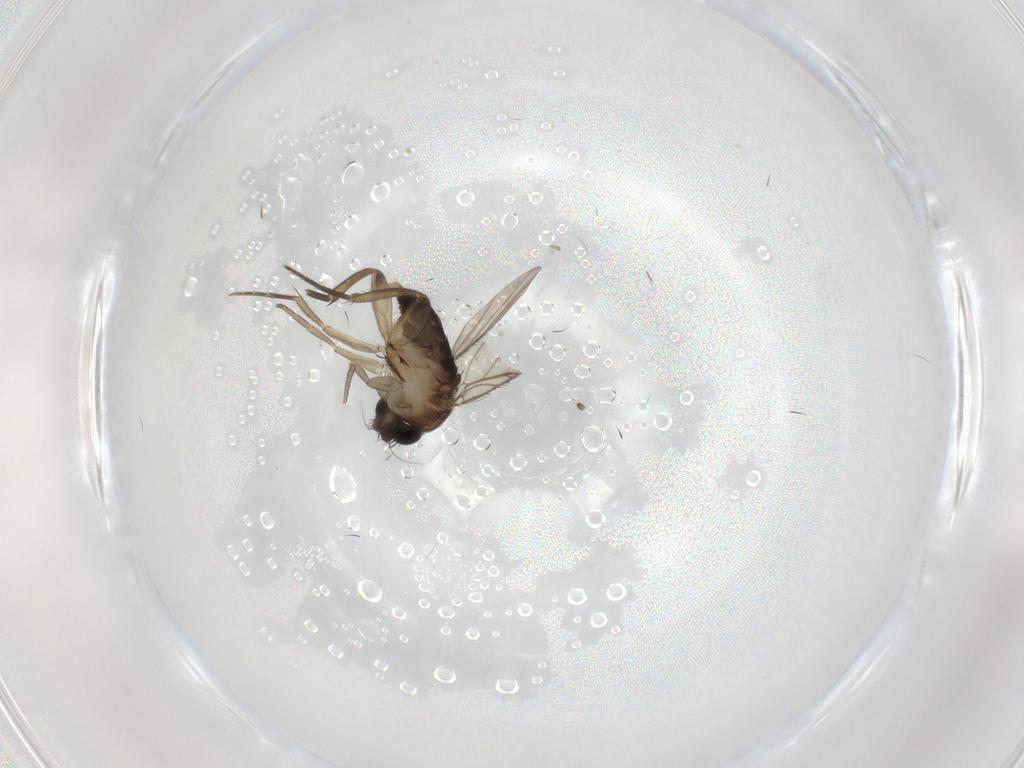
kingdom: Animalia
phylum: Arthropoda
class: Insecta
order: Diptera
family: Phoridae
